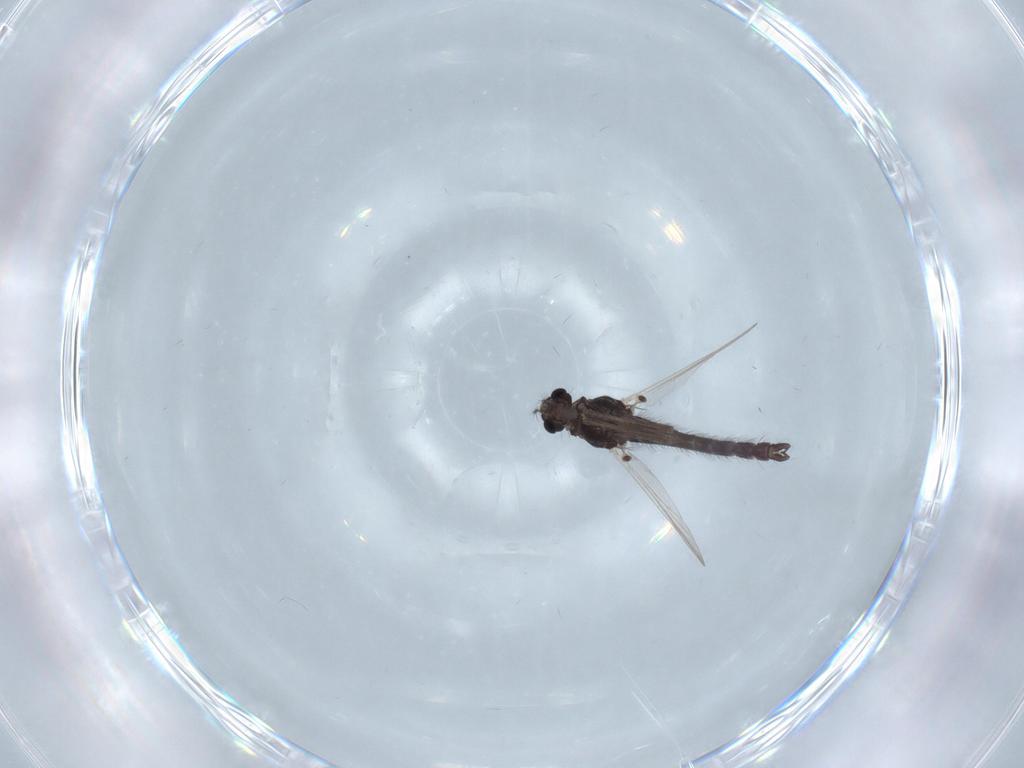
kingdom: Animalia
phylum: Arthropoda
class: Insecta
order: Diptera
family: Chironomidae
